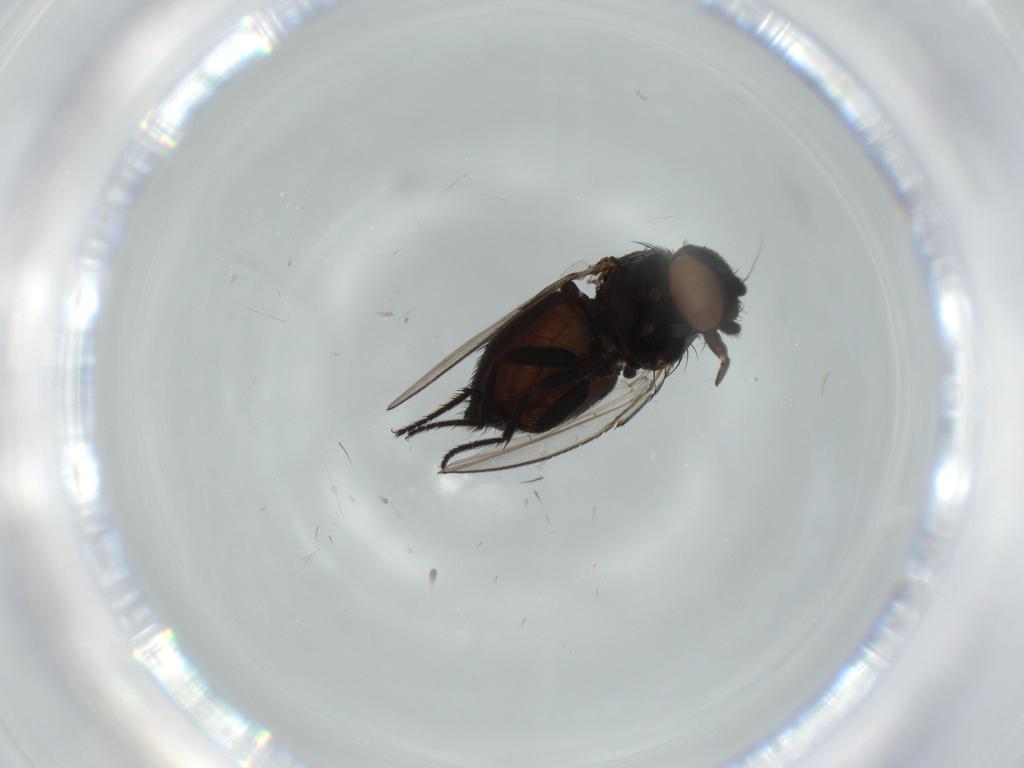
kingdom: Animalia
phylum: Arthropoda
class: Insecta
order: Diptera
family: Milichiidae
